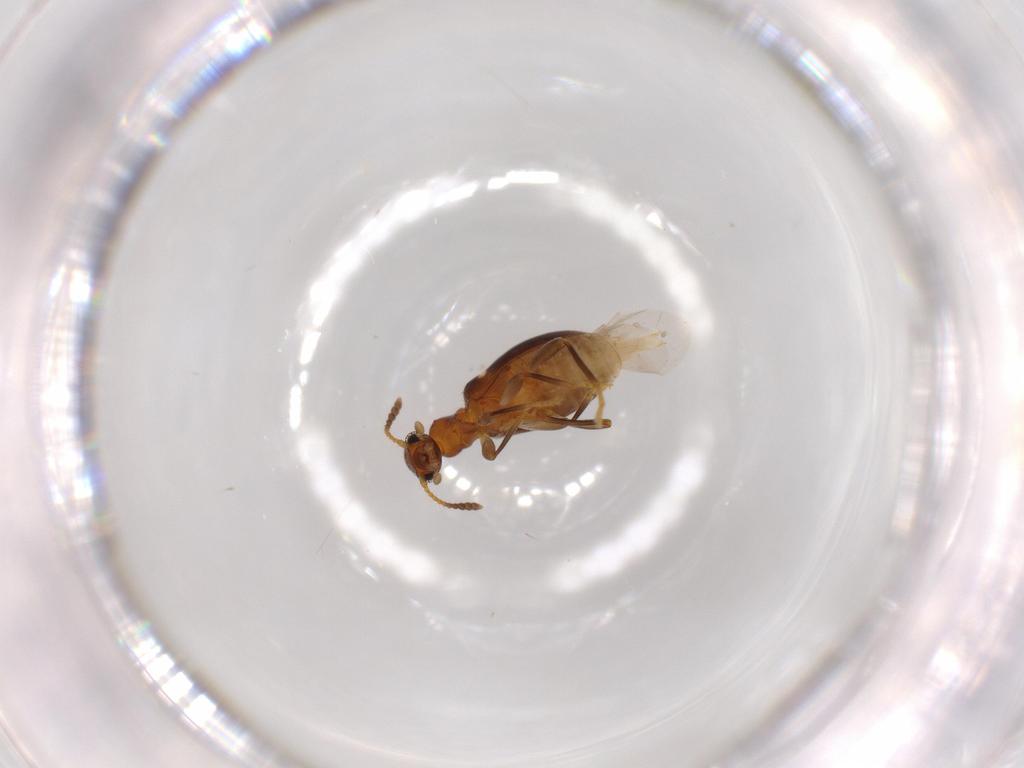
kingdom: Animalia
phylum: Arthropoda
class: Insecta
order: Coleoptera
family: Anthicidae
